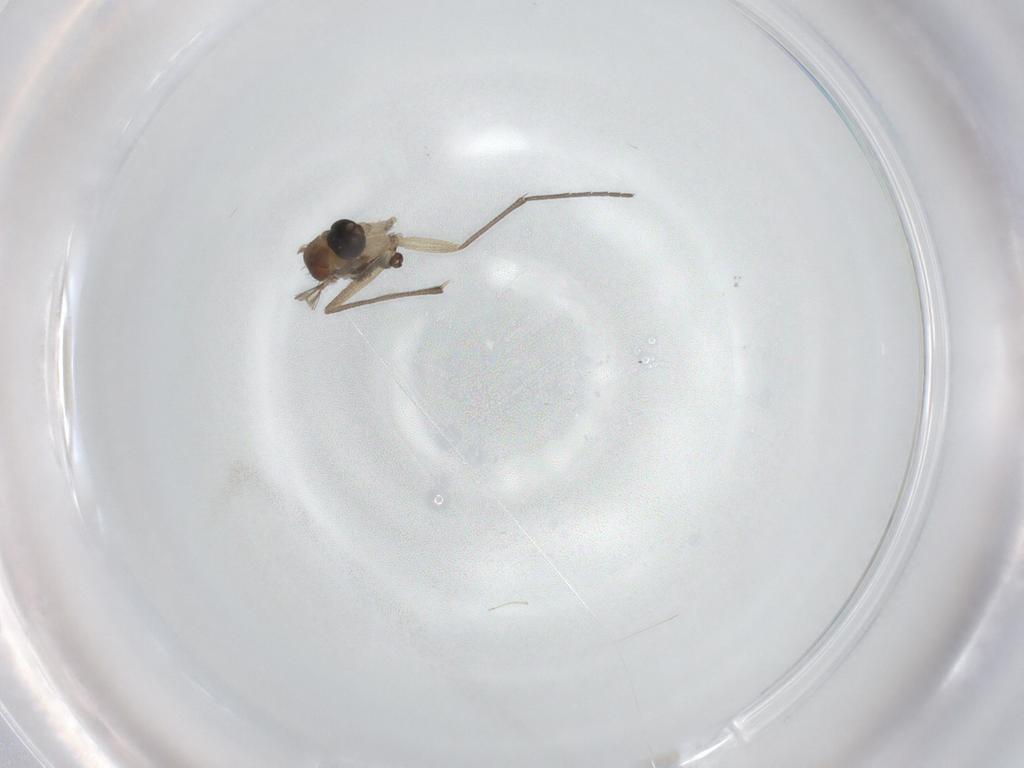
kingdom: Animalia
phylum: Arthropoda
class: Insecta
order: Diptera
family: Sciaridae
